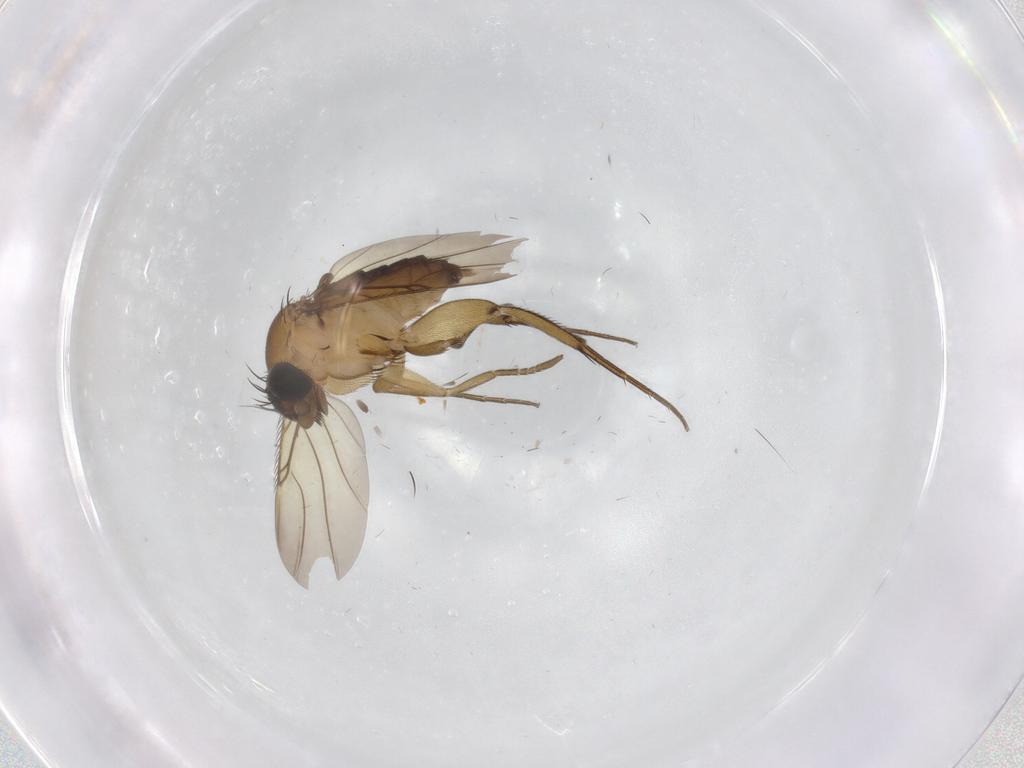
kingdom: Animalia
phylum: Arthropoda
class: Insecta
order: Diptera
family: Phoridae
